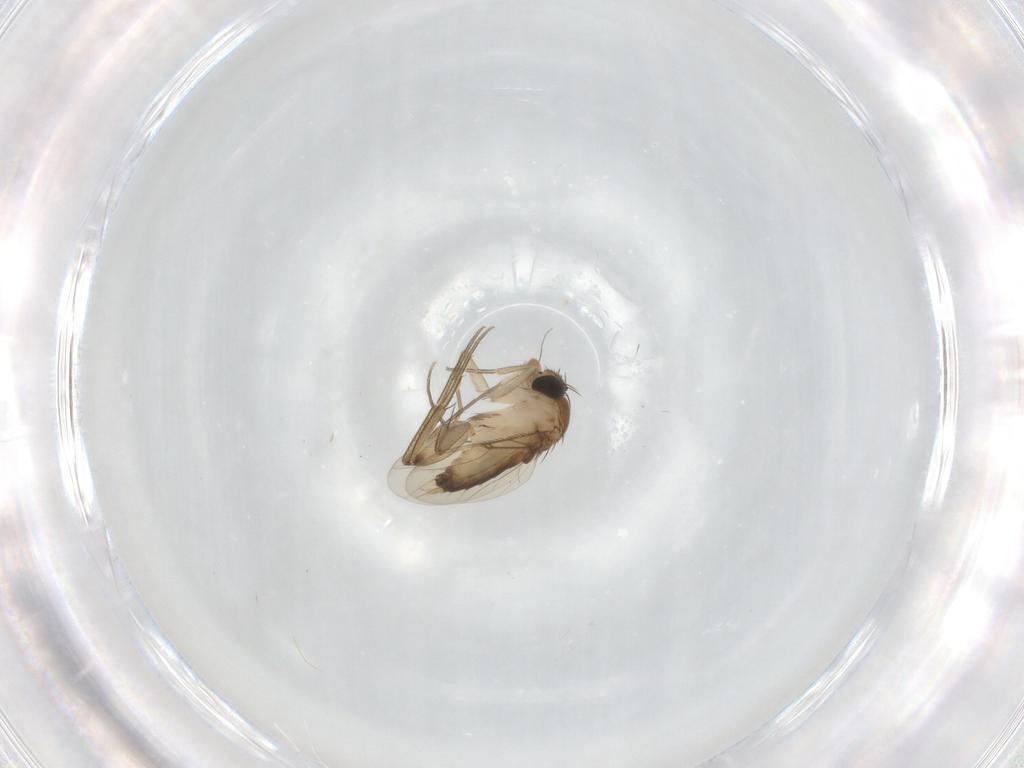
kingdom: Animalia
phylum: Arthropoda
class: Insecta
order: Diptera
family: Phoridae
